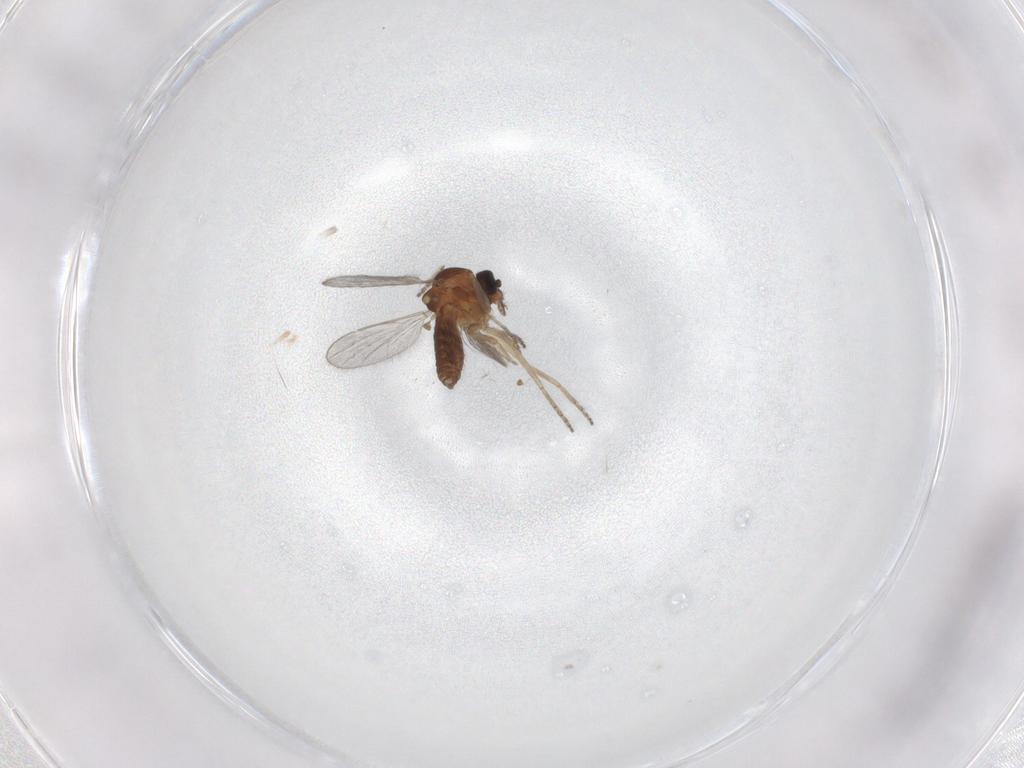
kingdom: Animalia
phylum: Arthropoda
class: Insecta
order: Diptera
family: Ceratopogonidae
